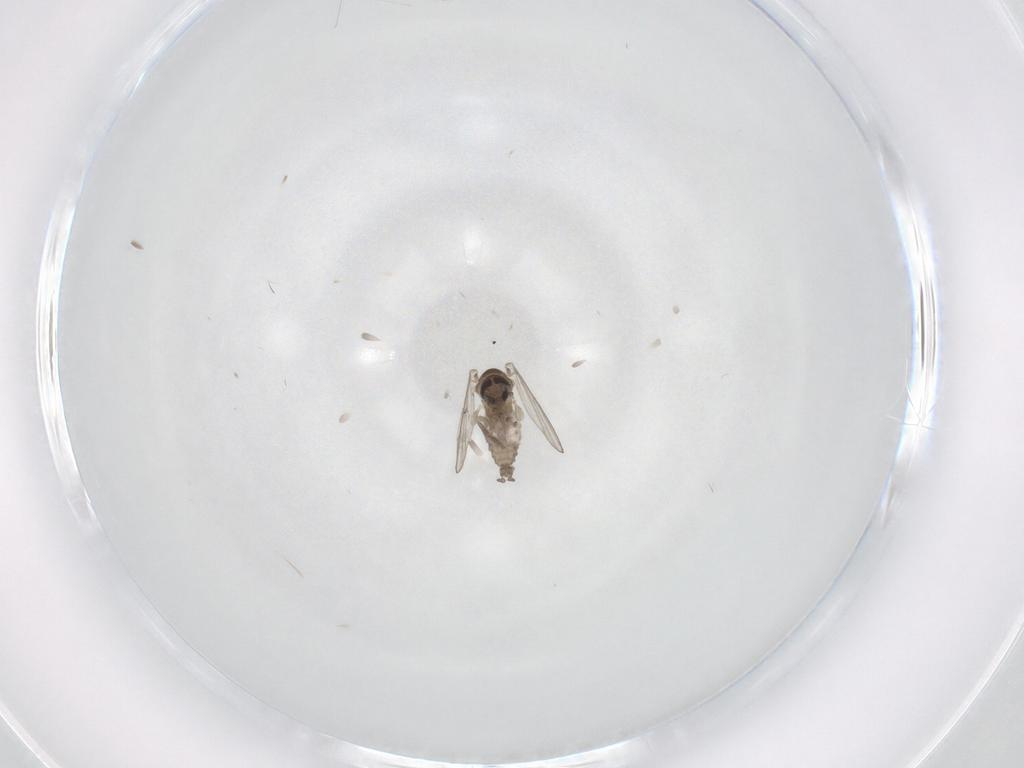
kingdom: Animalia
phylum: Arthropoda
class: Insecta
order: Diptera
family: Psychodidae
